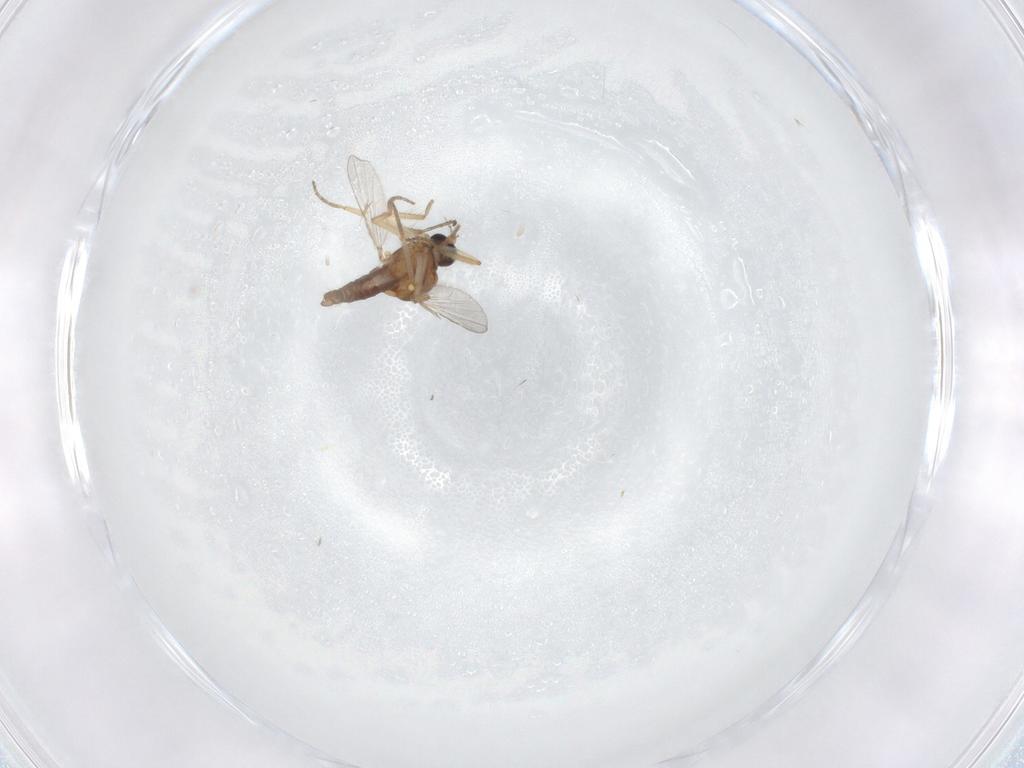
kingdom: Animalia
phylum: Arthropoda
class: Insecta
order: Diptera
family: Ceratopogonidae
